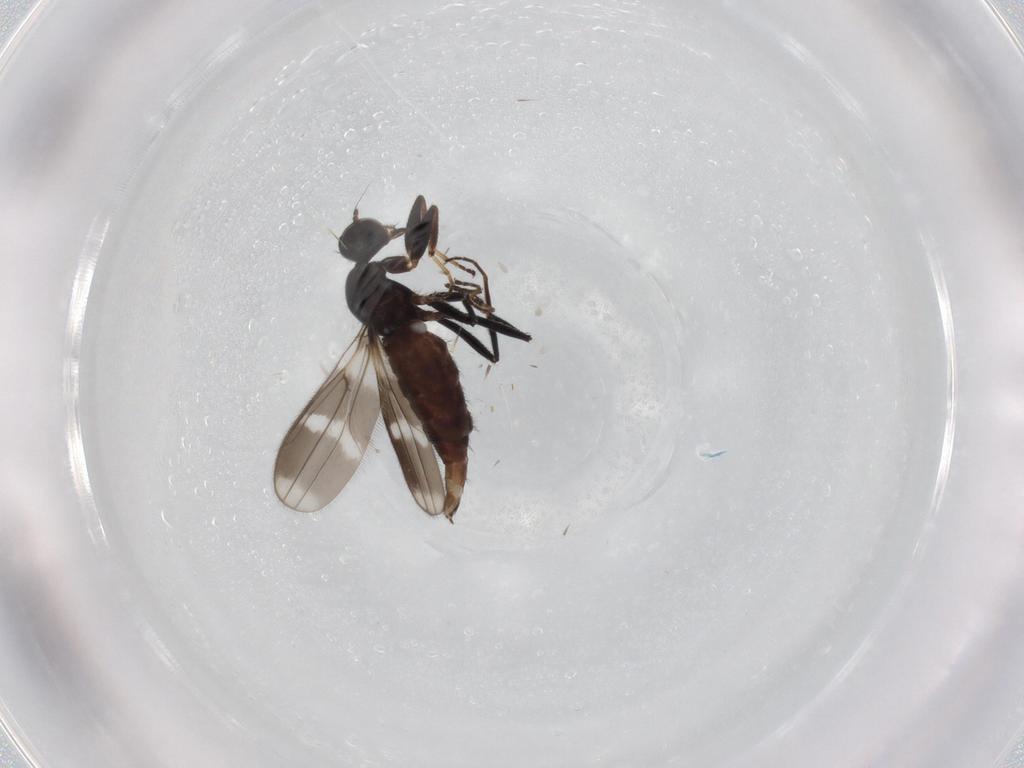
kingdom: Animalia
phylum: Arthropoda
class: Insecta
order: Diptera
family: Hybotidae
